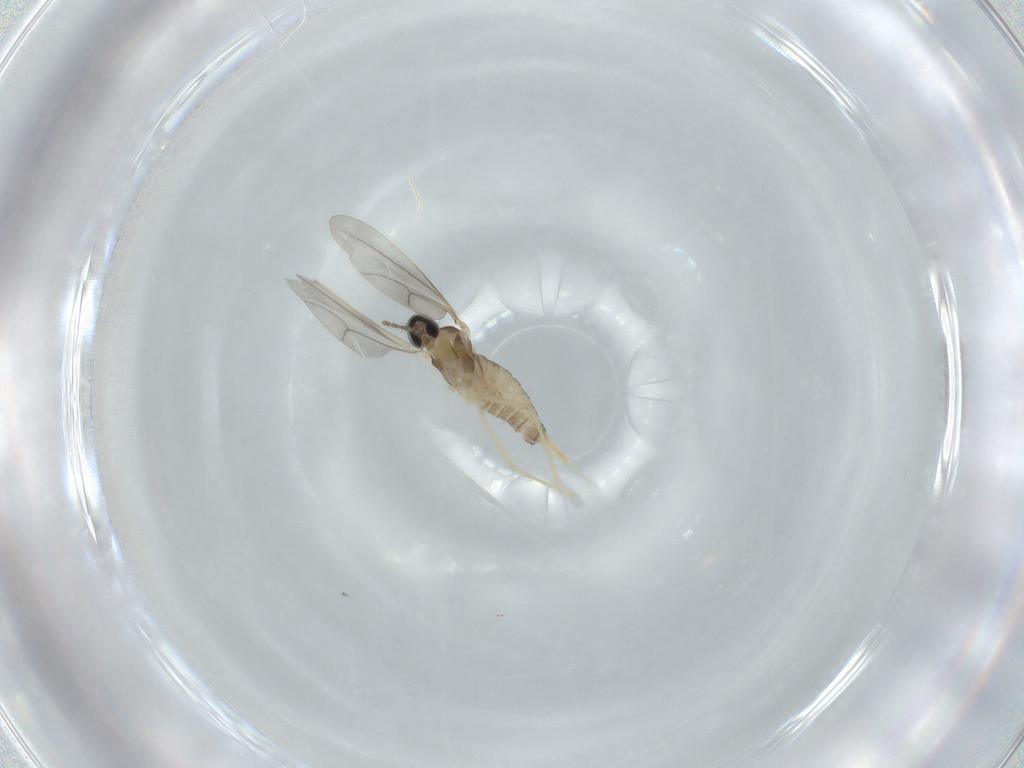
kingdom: Animalia
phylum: Arthropoda
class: Insecta
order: Diptera
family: Cecidomyiidae
